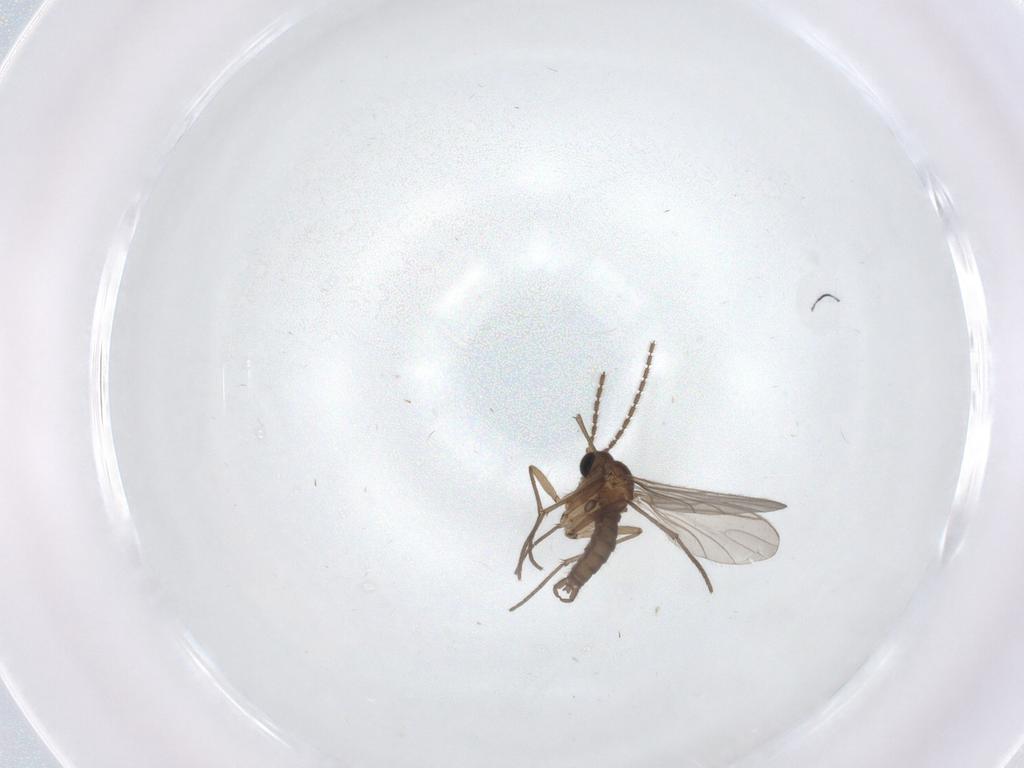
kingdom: Animalia
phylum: Arthropoda
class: Insecta
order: Diptera
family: Sciaridae
